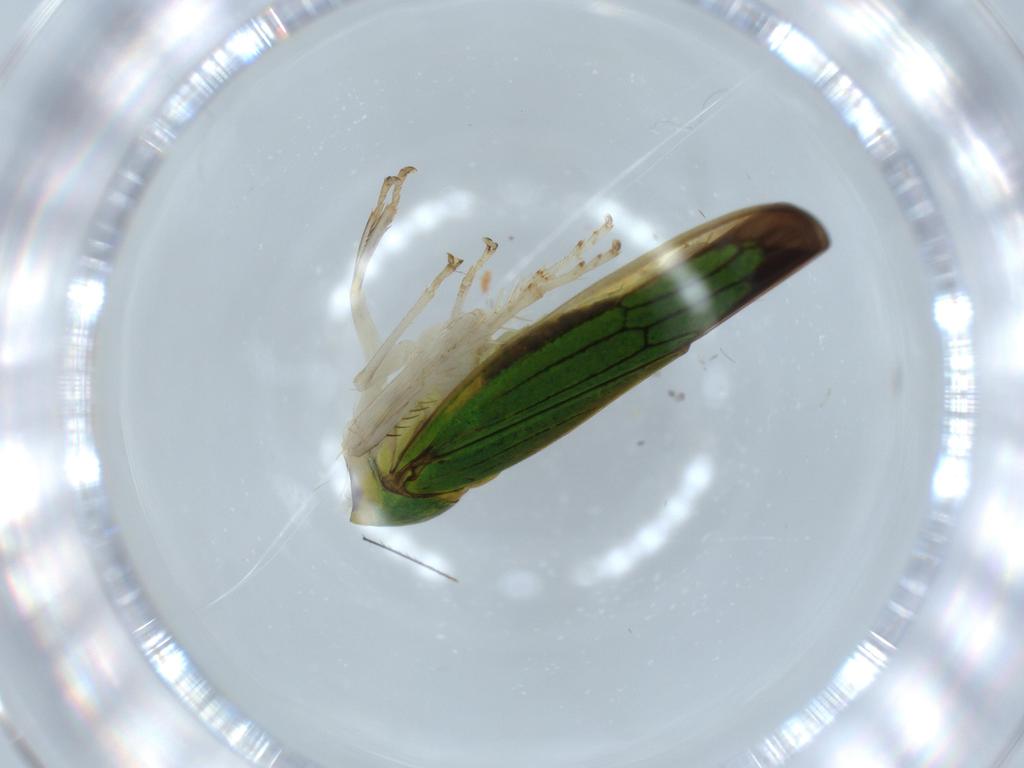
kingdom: Animalia
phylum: Arthropoda
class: Insecta
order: Hemiptera
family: Cicadellidae
